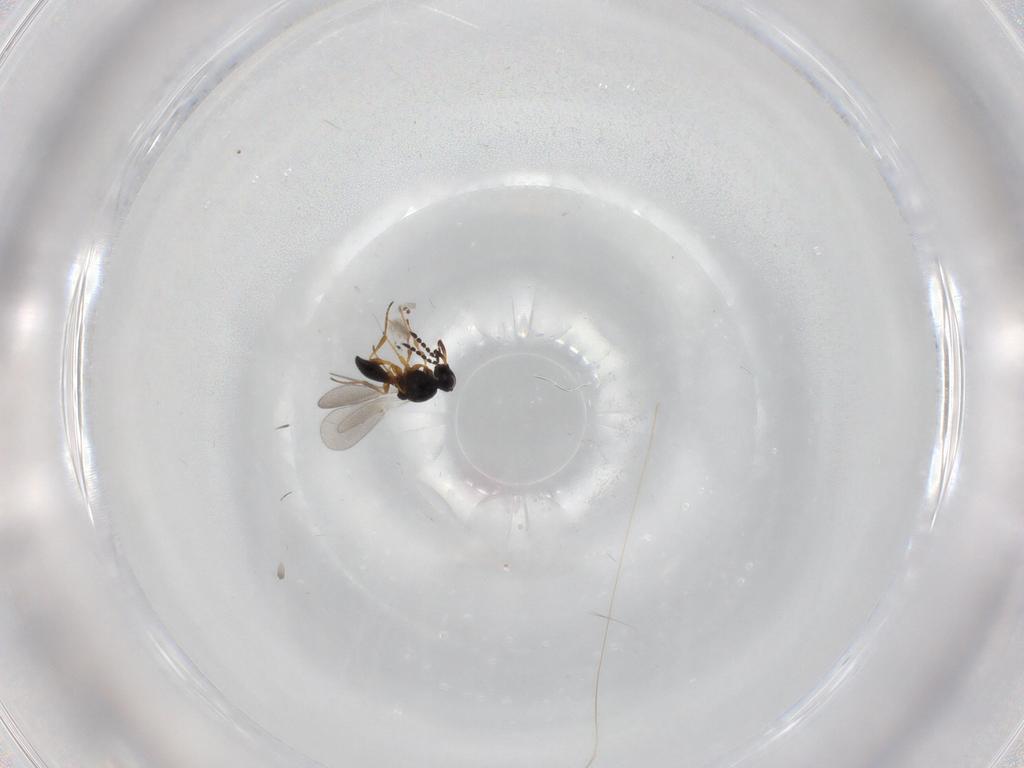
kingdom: Animalia
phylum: Arthropoda
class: Insecta
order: Hymenoptera
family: Platygastridae
